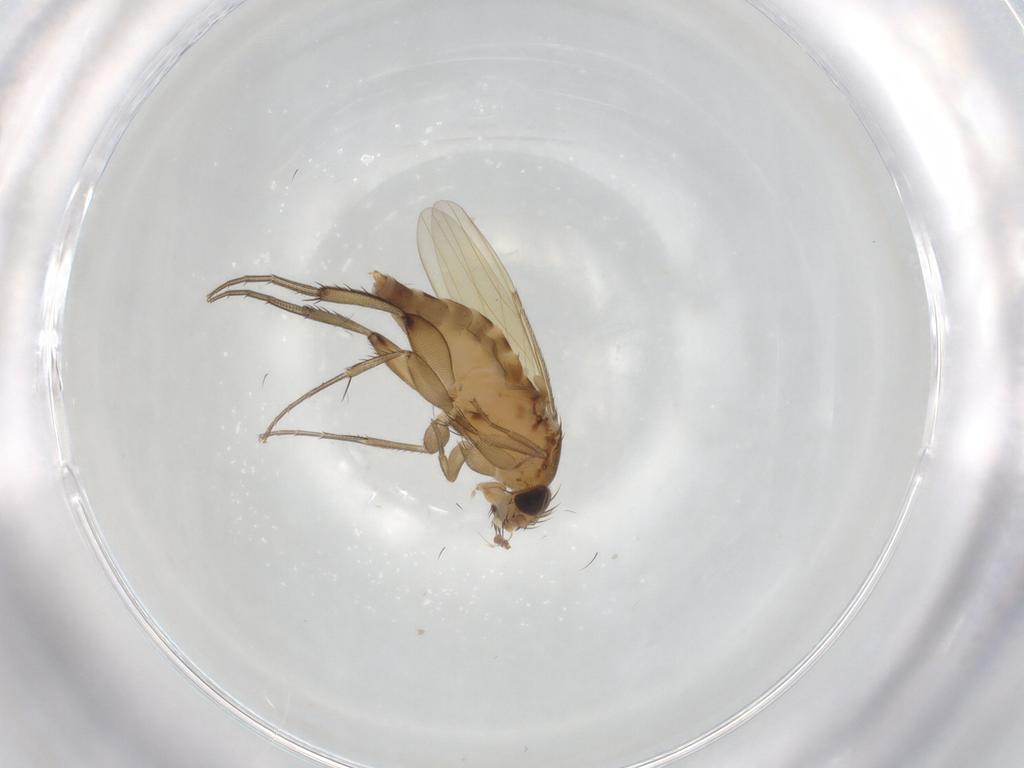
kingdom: Animalia
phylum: Arthropoda
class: Insecta
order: Diptera
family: Phoridae
